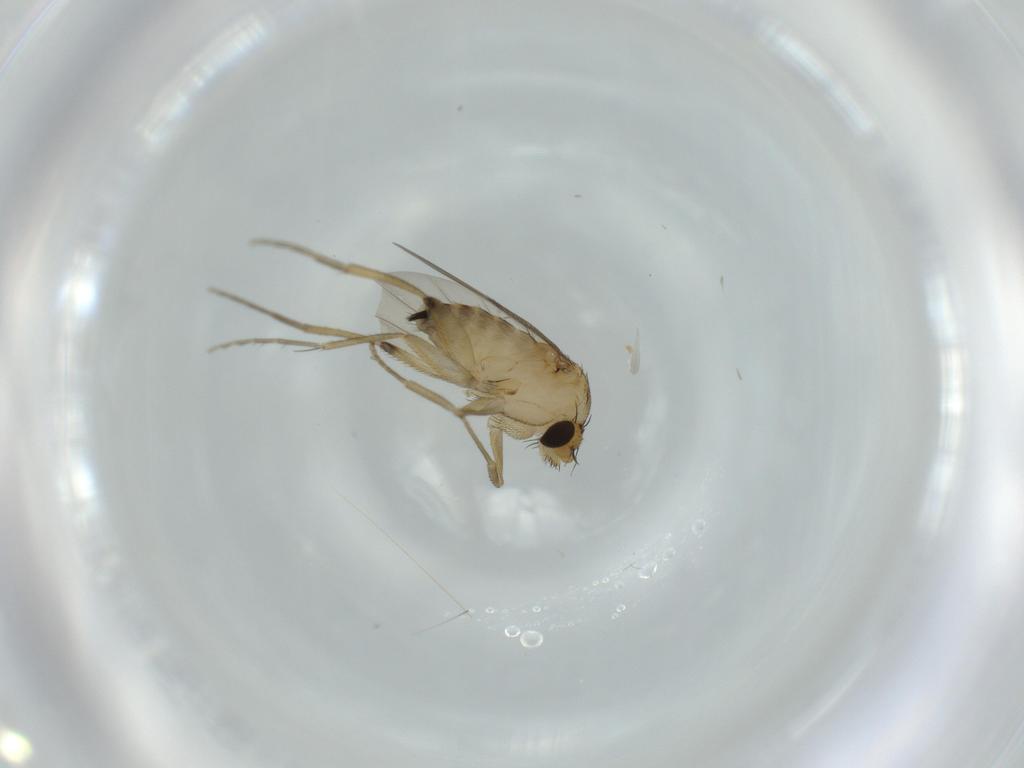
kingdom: Animalia
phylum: Arthropoda
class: Insecta
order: Diptera
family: Phoridae
